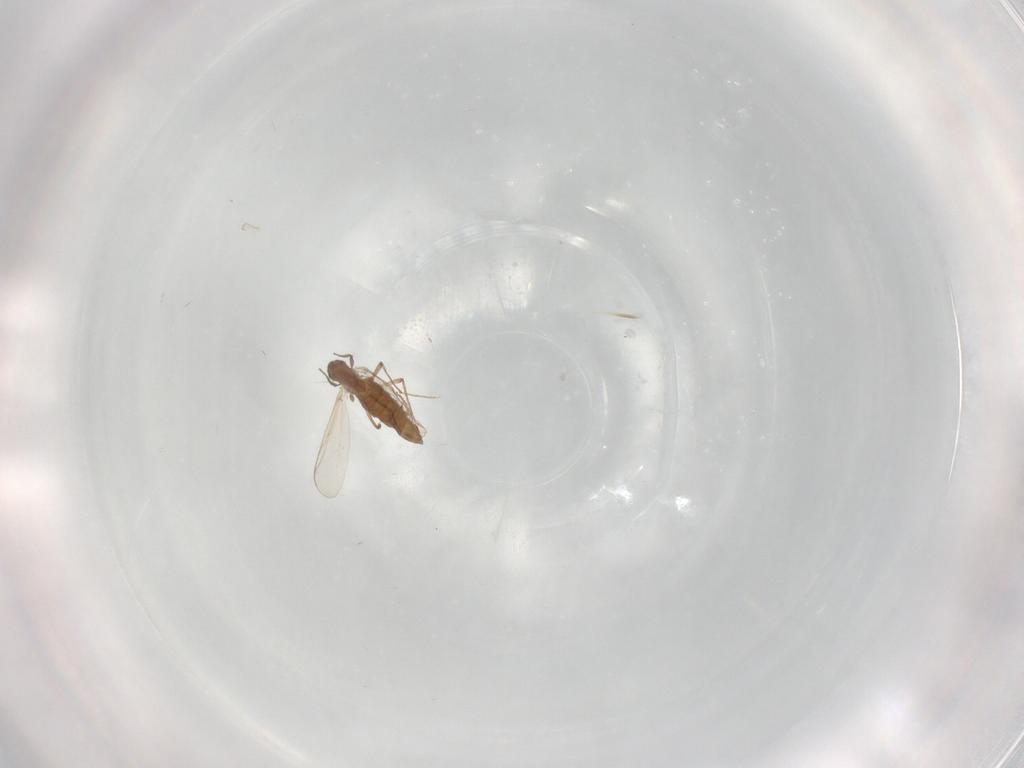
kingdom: Animalia
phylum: Arthropoda
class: Insecta
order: Diptera
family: Chironomidae
